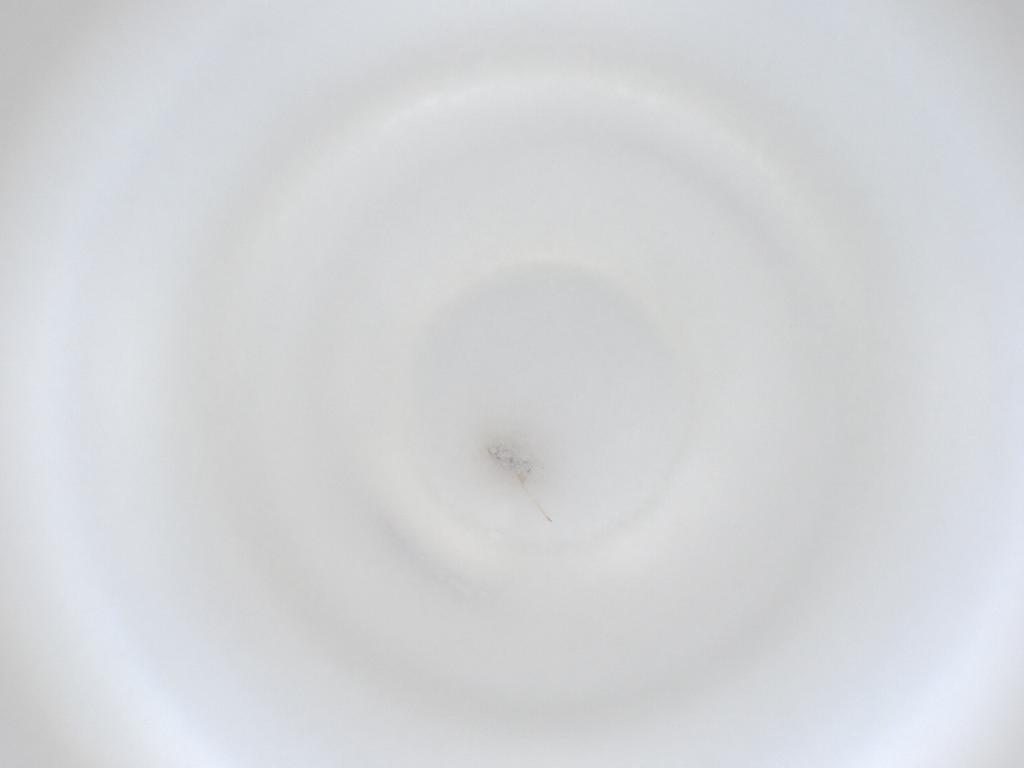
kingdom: Animalia
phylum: Arthropoda
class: Insecta
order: Diptera
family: Cecidomyiidae
